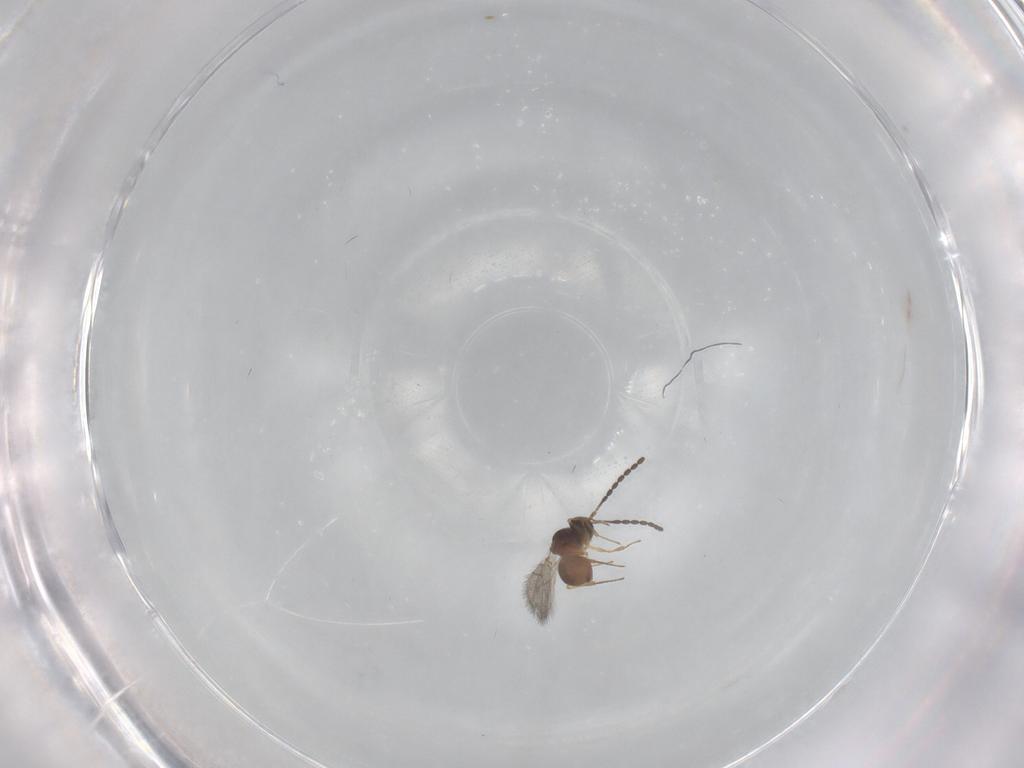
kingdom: Animalia
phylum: Arthropoda
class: Insecta
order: Hymenoptera
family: Figitidae
